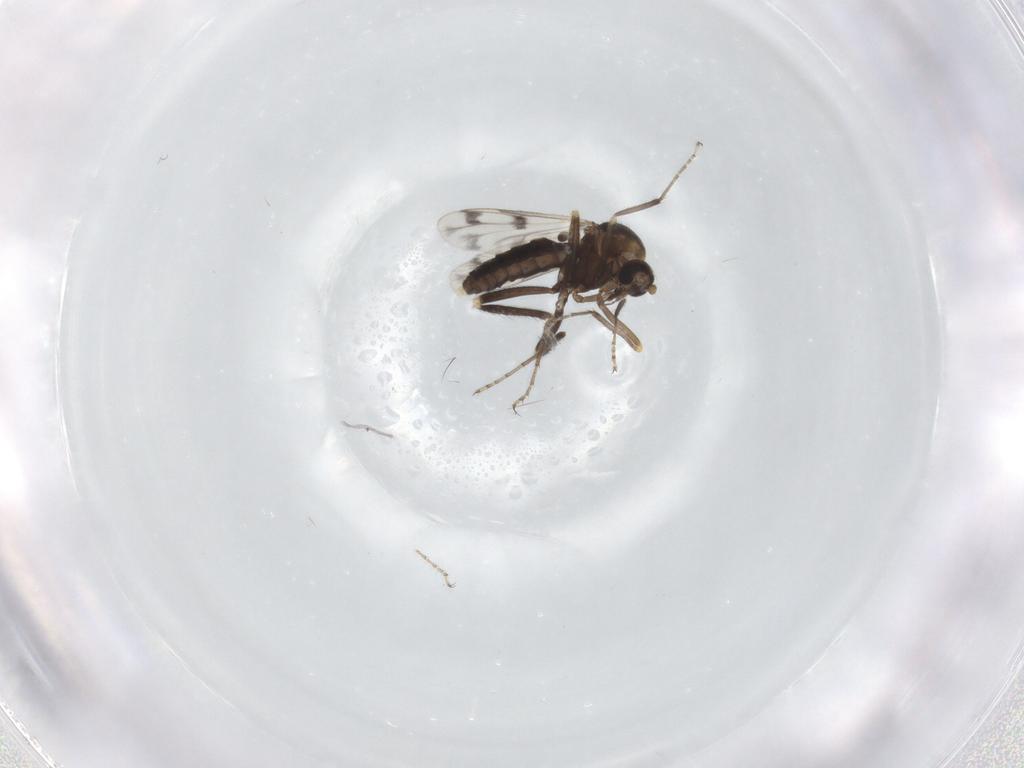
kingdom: Animalia
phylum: Arthropoda
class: Insecta
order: Diptera
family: Ceratopogonidae
